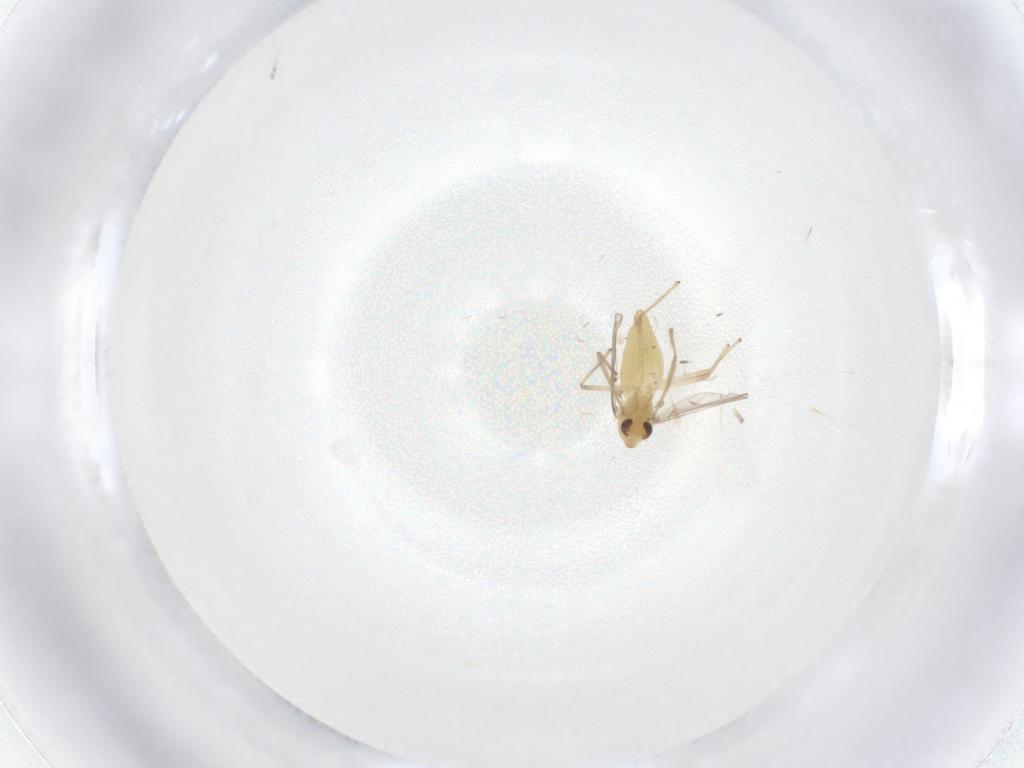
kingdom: Animalia
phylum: Arthropoda
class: Insecta
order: Diptera
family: Chironomidae
